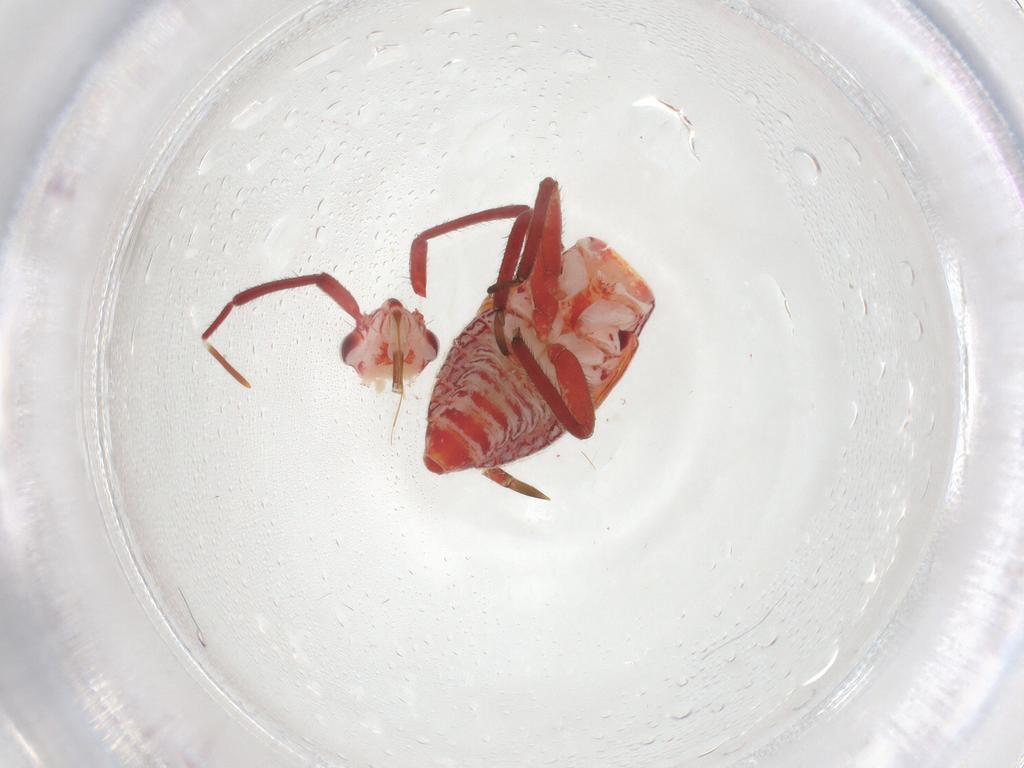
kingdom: Animalia
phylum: Arthropoda
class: Insecta
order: Hemiptera
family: Miridae
